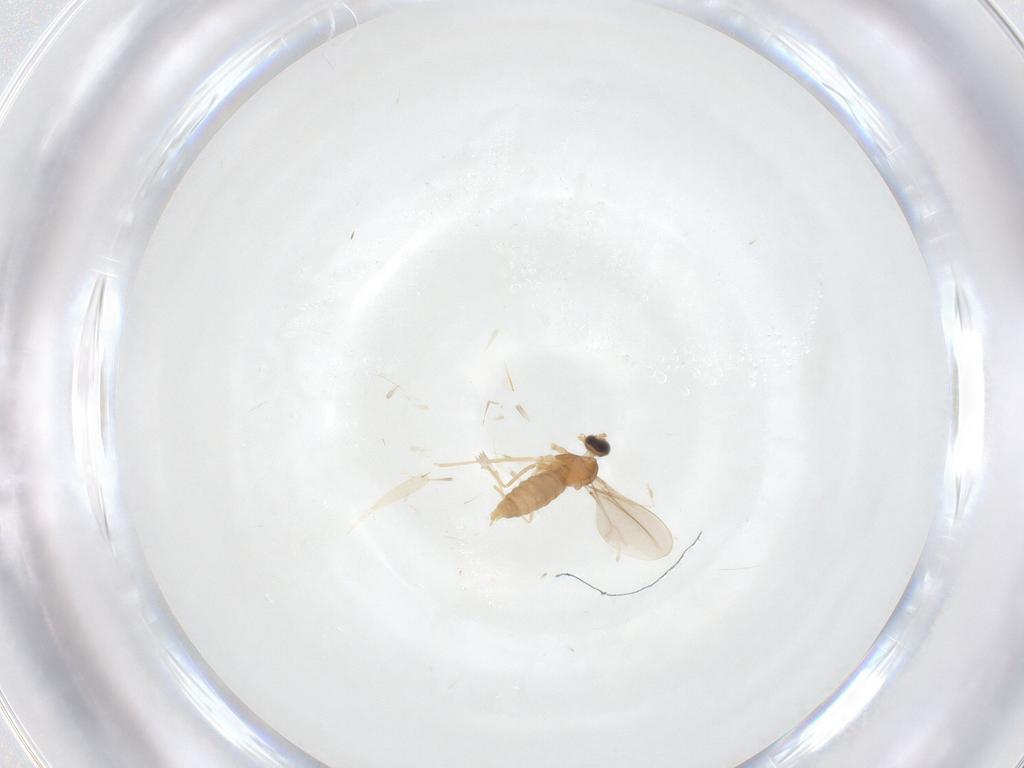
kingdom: Animalia
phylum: Arthropoda
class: Insecta
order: Diptera
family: Cecidomyiidae
